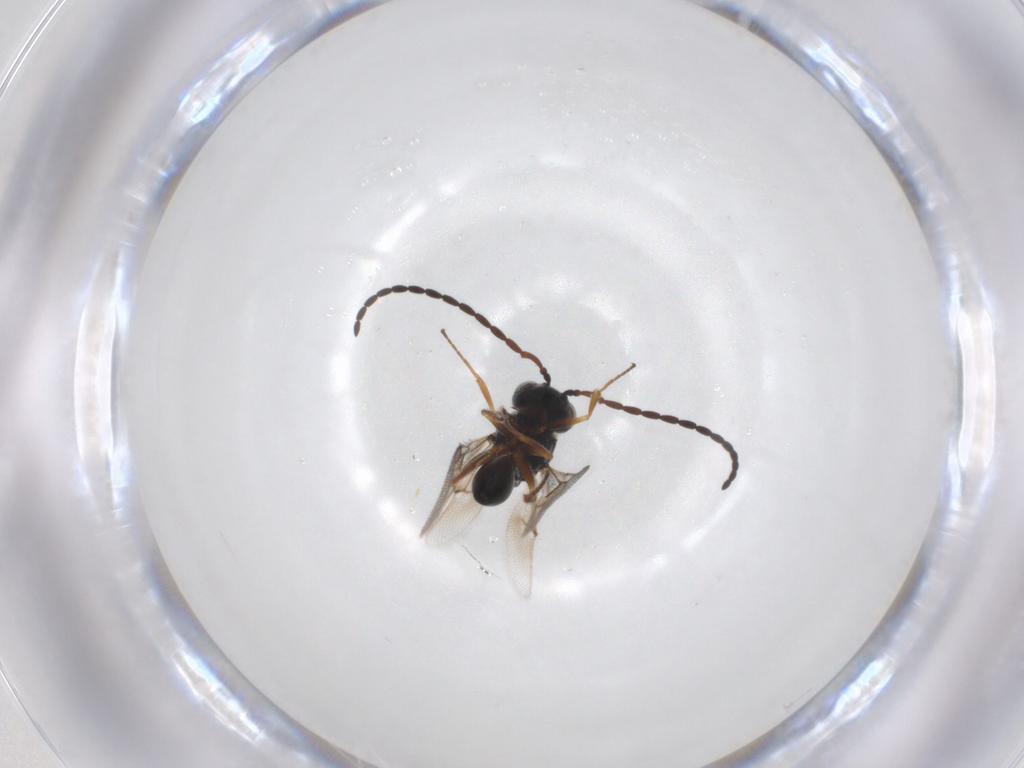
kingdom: Animalia
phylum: Arthropoda
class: Insecta
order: Hymenoptera
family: Figitidae
